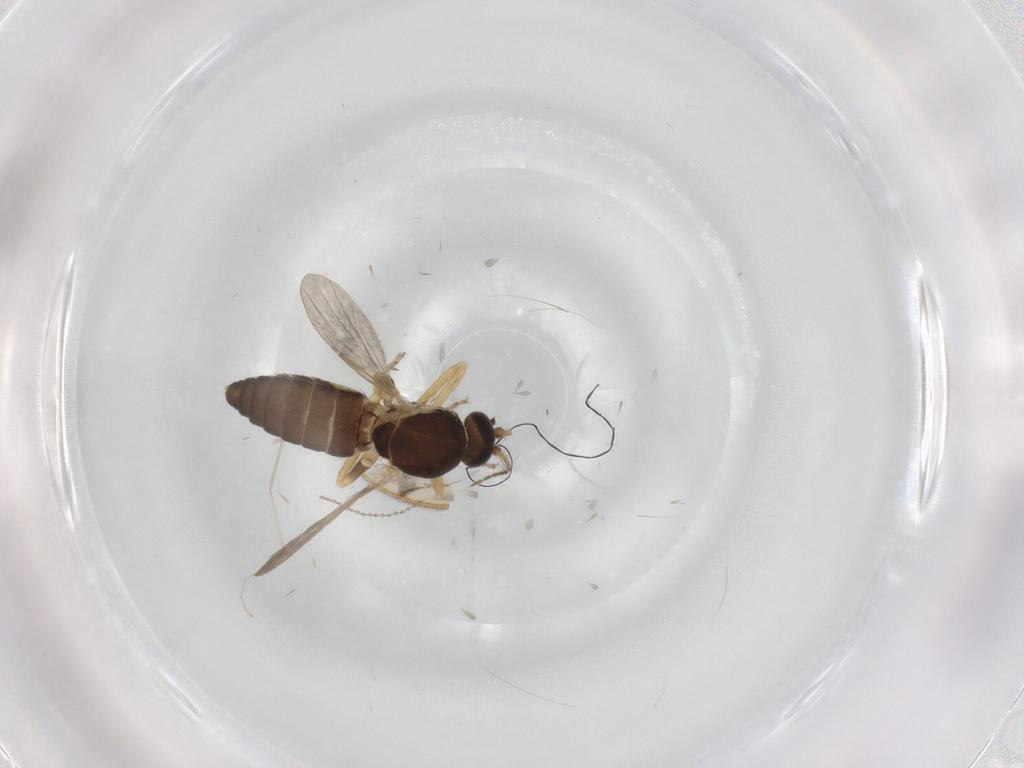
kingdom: Animalia
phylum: Arthropoda
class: Insecta
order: Diptera
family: Ceratopogonidae
